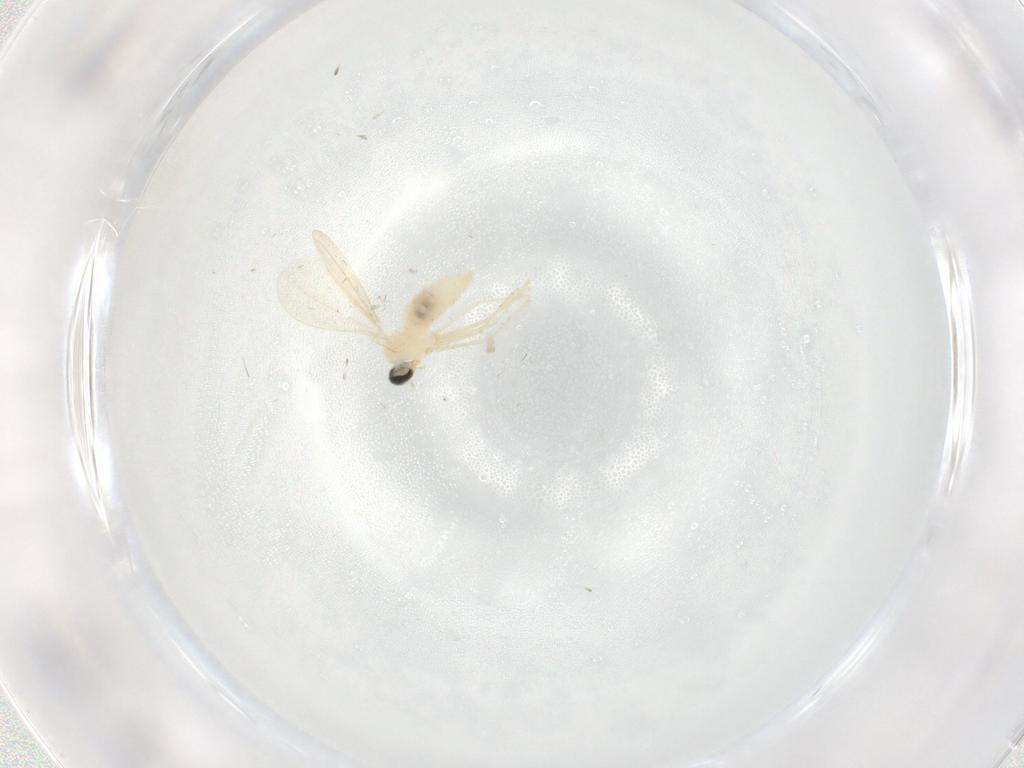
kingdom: Animalia
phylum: Arthropoda
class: Insecta
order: Diptera
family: Cecidomyiidae
